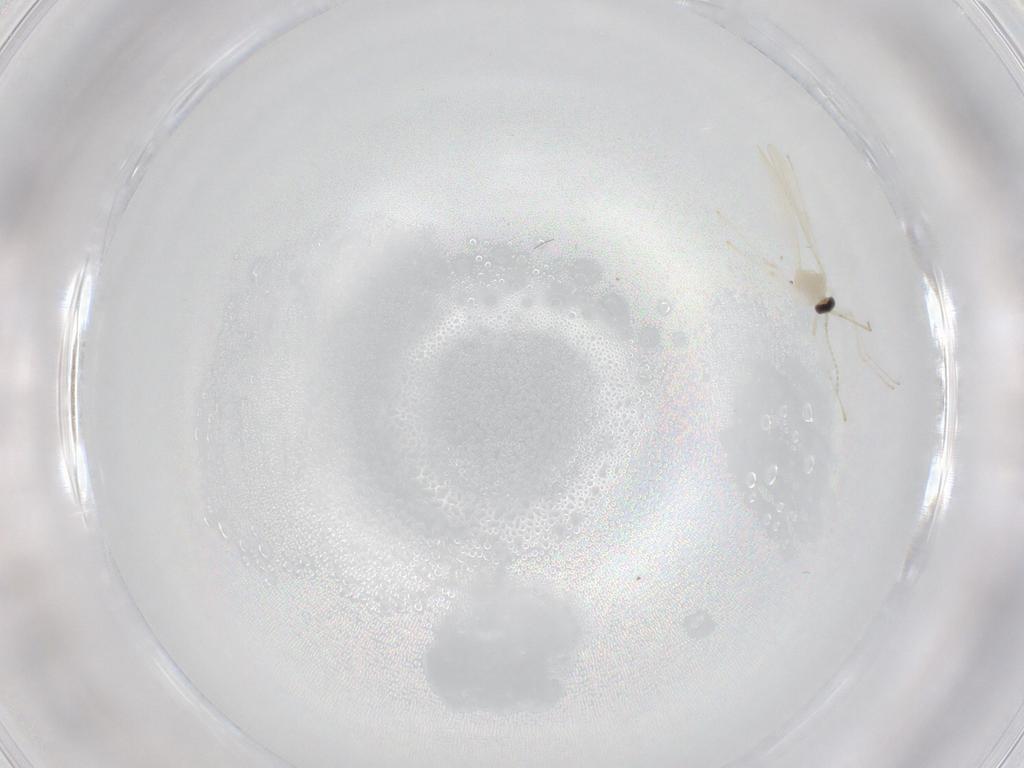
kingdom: Animalia
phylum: Arthropoda
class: Insecta
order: Diptera
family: Cecidomyiidae
